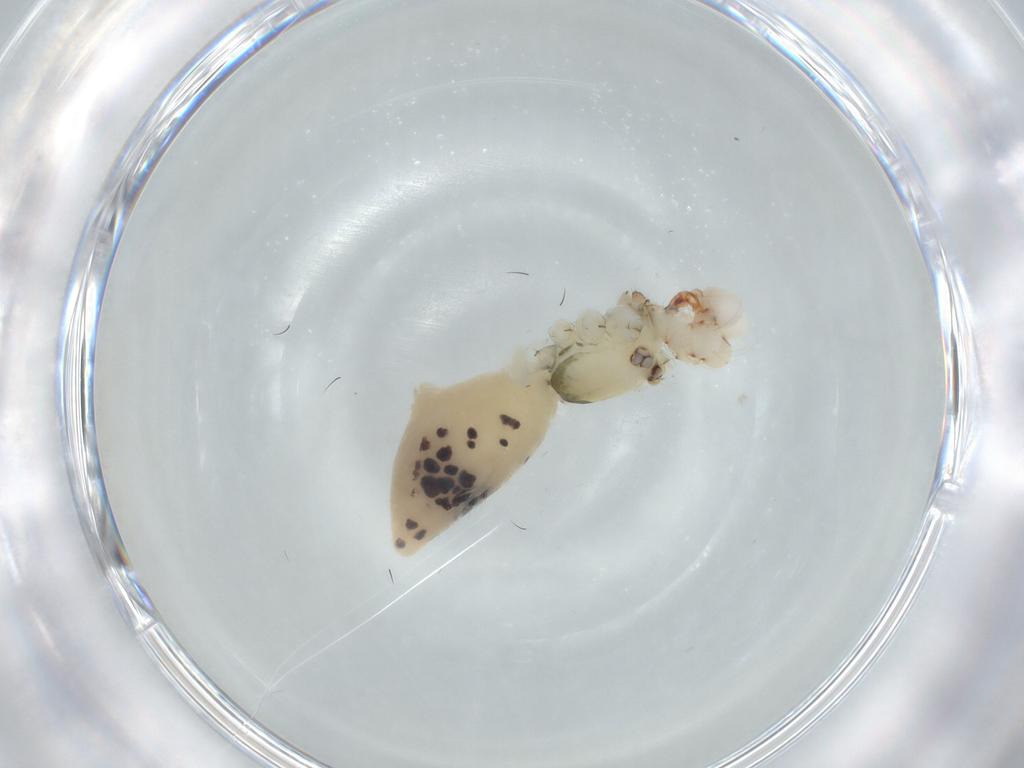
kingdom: Animalia
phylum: Arthropoda
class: Arachnida
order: Araneae
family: Pholcidae
